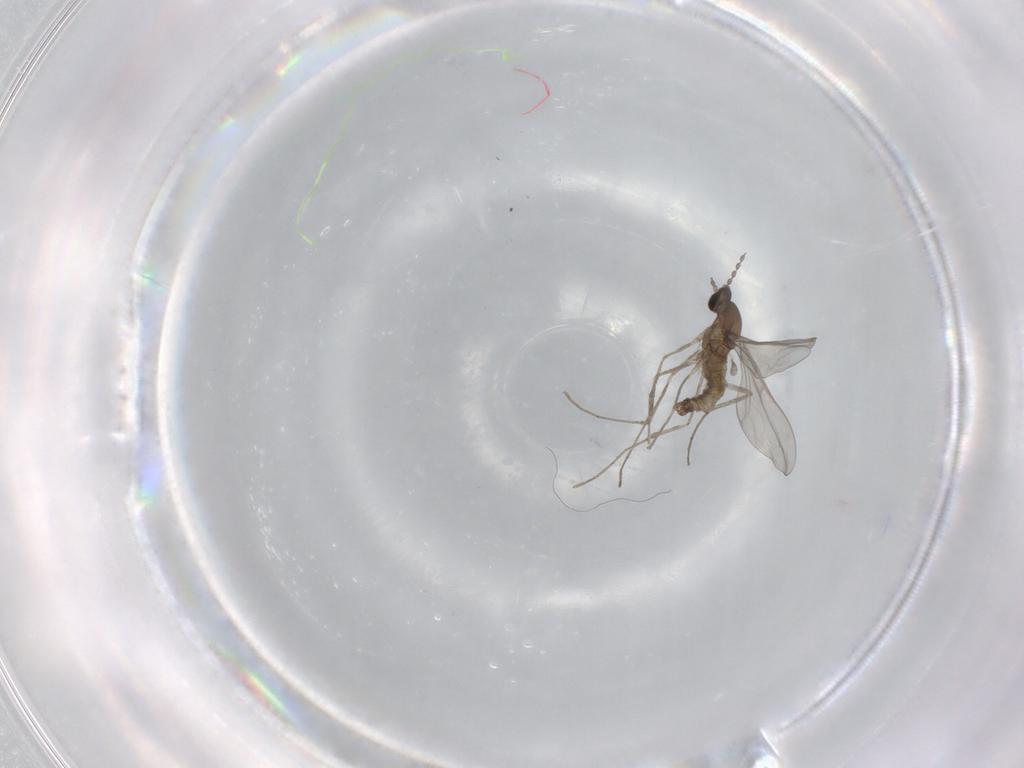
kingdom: Animalia
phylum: Arthropoda
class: Insecta
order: Diptera
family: Cecidomyiidae
